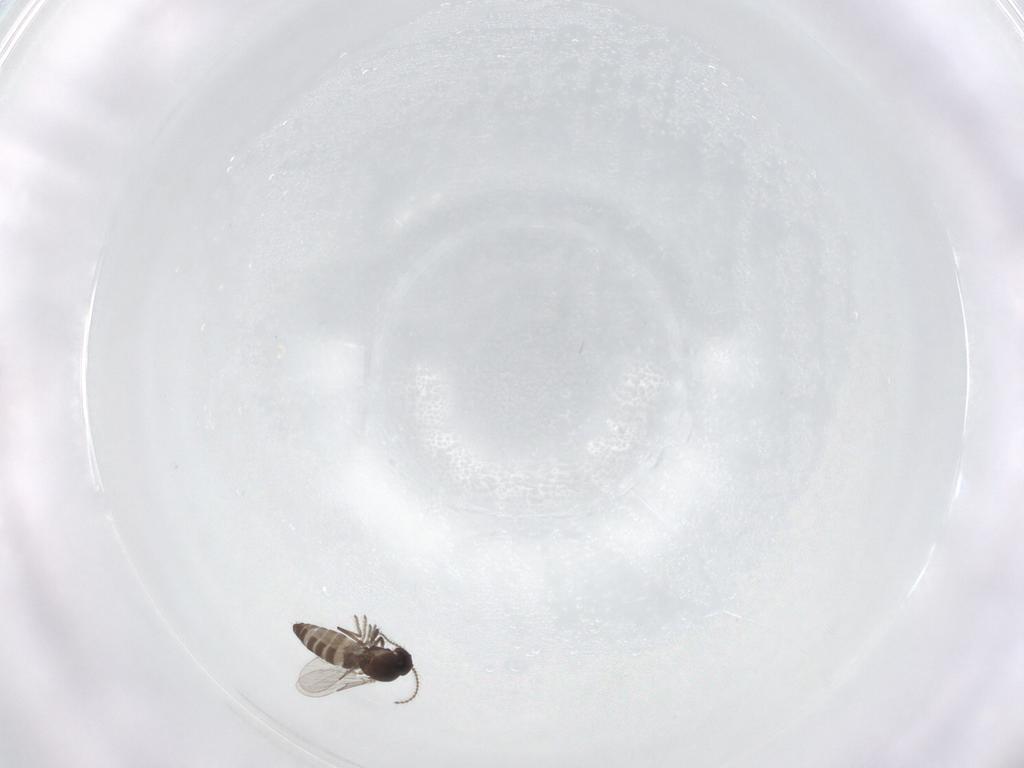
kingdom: Animalia
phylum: Arthropoda
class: Insecta
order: Diptera
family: Ceratopogonidae
